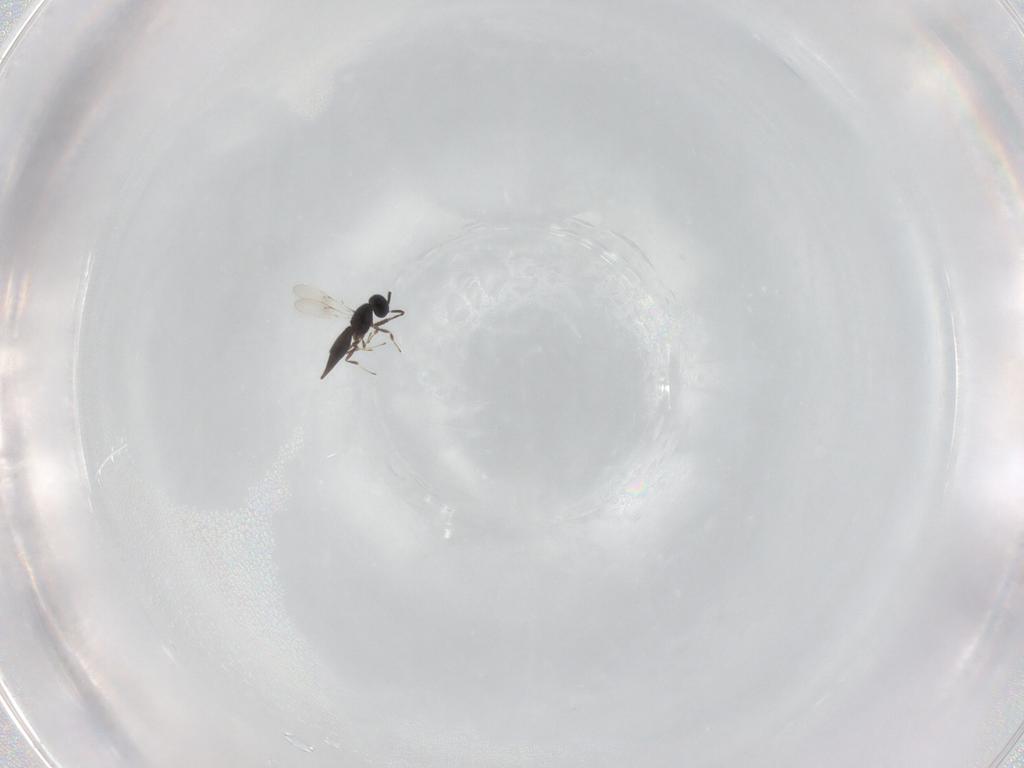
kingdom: Animalia
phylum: Arthropoda
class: Insecta
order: Hymenoptera
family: Scelionidae
